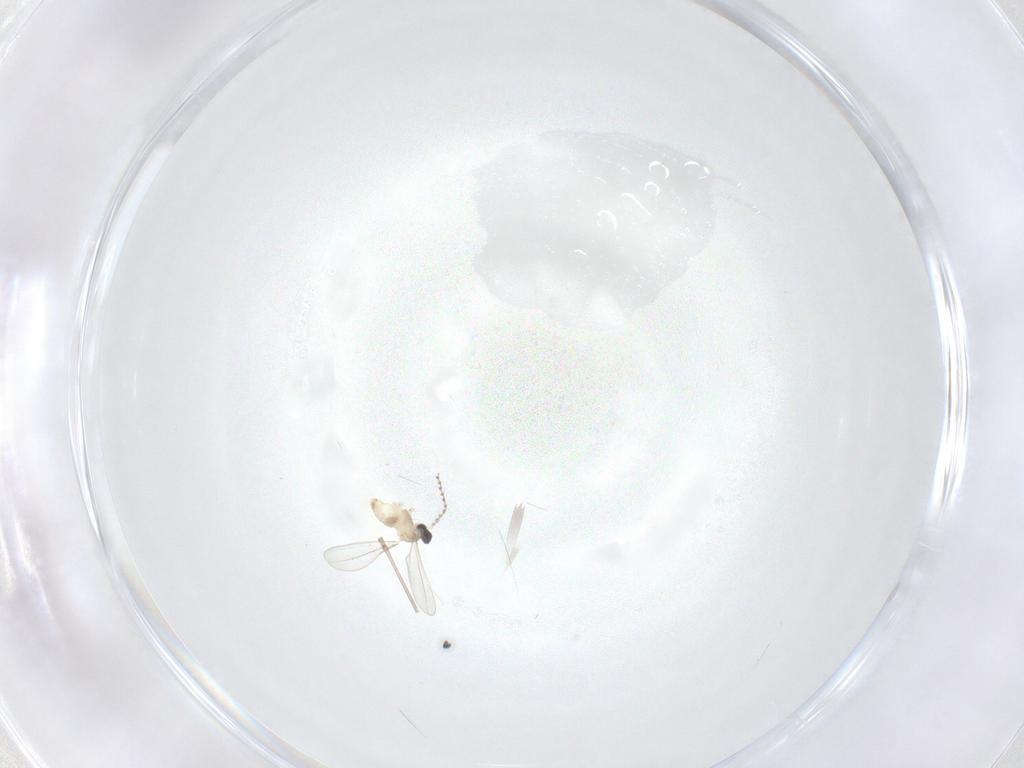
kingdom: Animalia
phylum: Arthropoda
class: Insecta
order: Diptera
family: Cecidomyiidae
